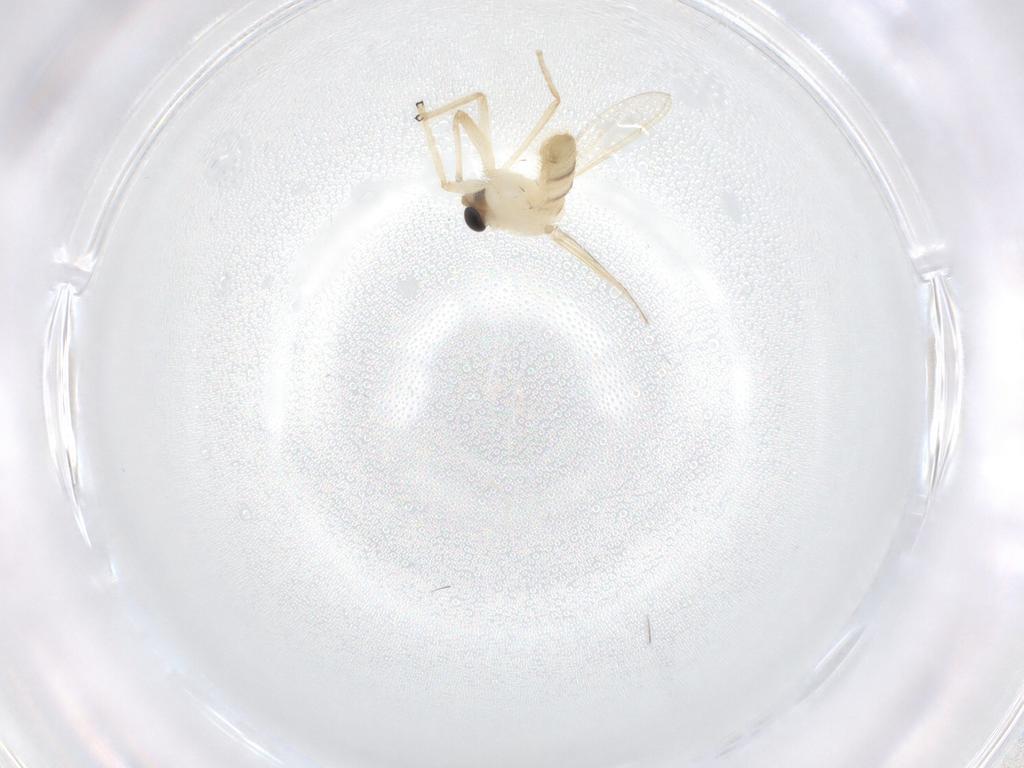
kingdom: Animalia
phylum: Arthropoda
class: Insecta
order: Diptera
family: Chironomidae
